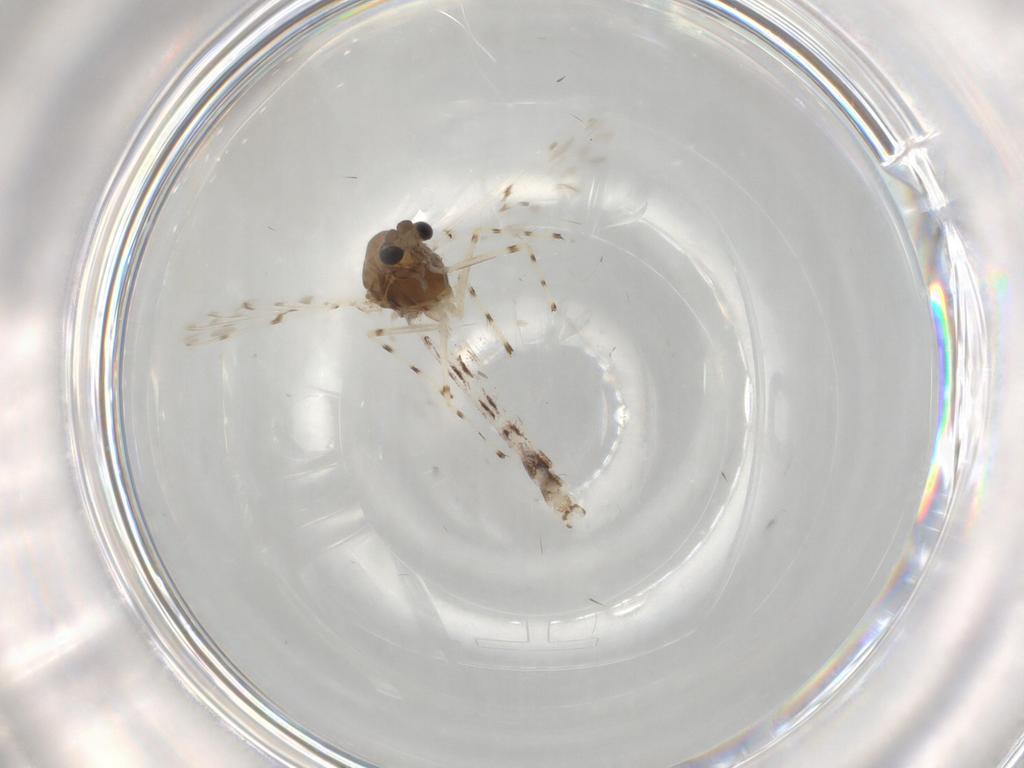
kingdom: Animalia
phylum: Arthropoda
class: Insecta
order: Diptera
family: Chironomidae
